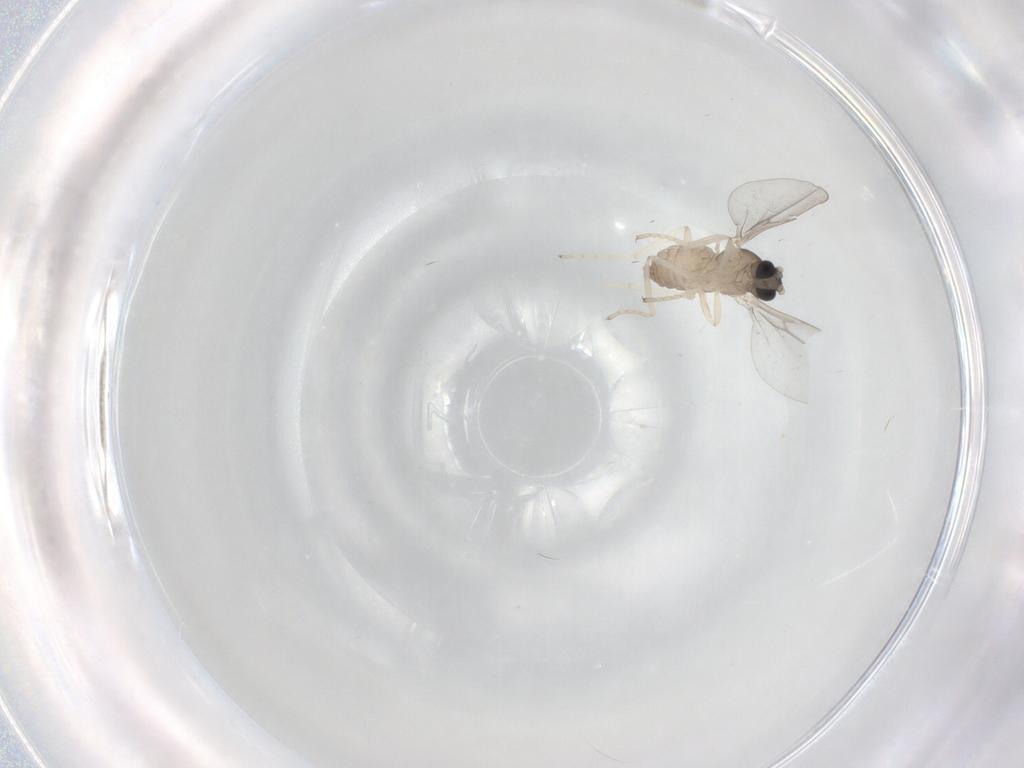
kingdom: Animalia
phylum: Arthropoda
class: Insecta
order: Diptera
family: Cecidomyiidae
